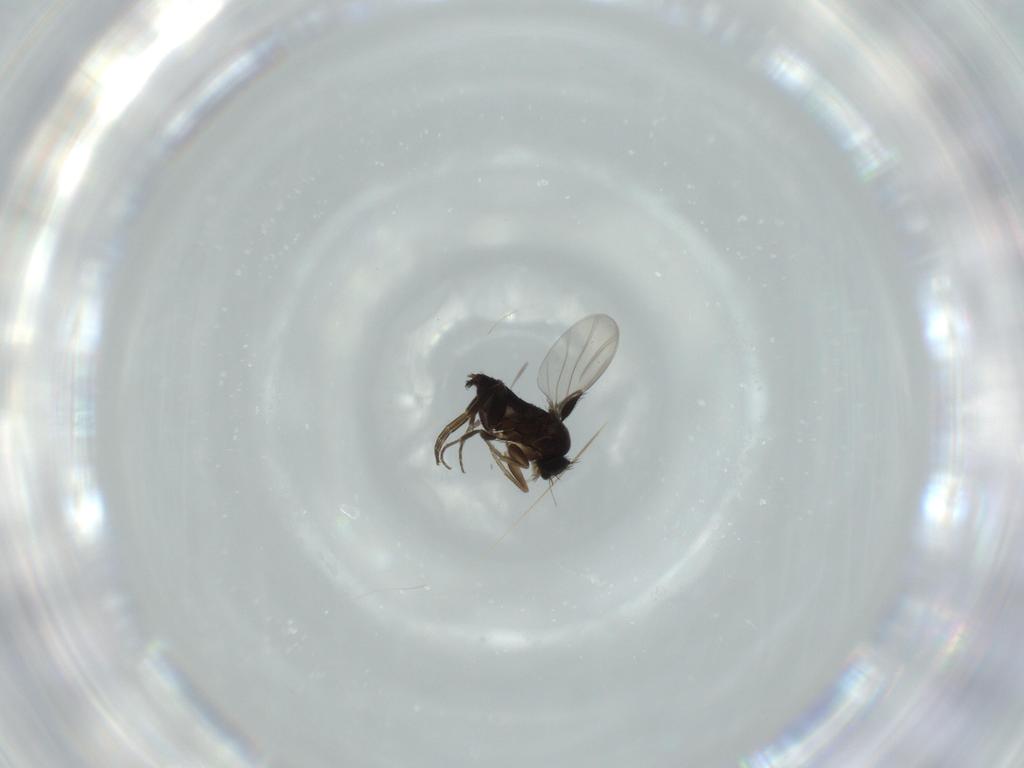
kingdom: Animalia
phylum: Arthropoda
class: Insecta
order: Diptera
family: Phoridae
